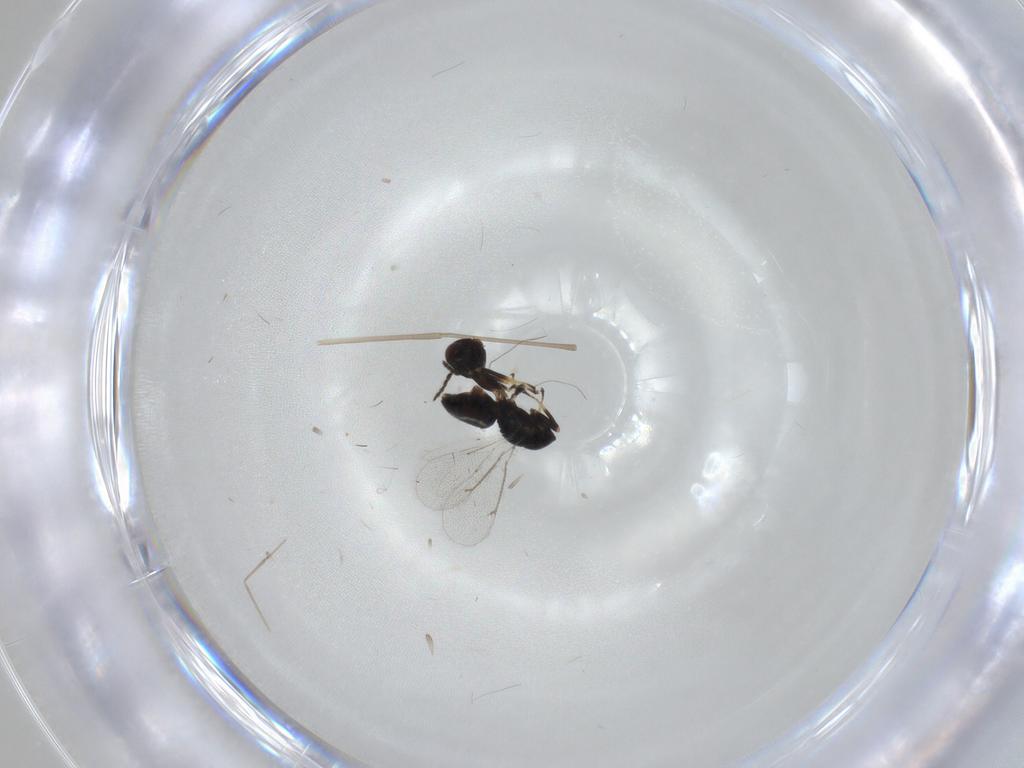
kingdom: Animalia
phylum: Arthropoda
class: Insecta
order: Hymenoptera
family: Eulophidae
